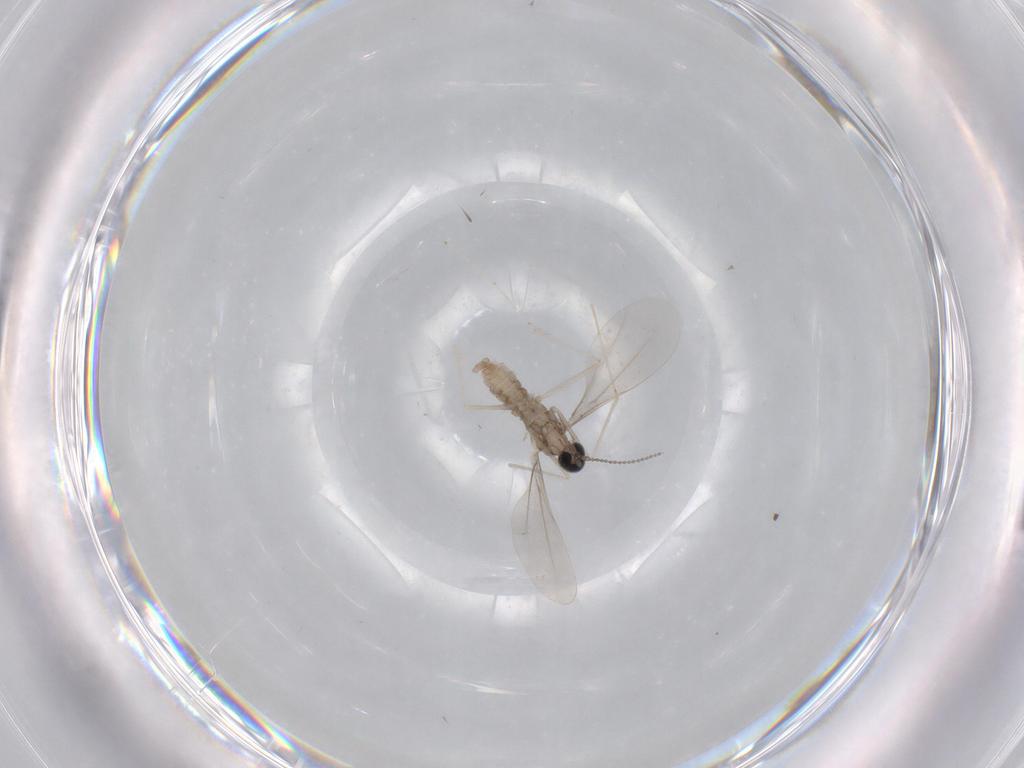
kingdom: Animalia
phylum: Arthropoda
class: Insecta
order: Diptera
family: Cecidomyiidae
